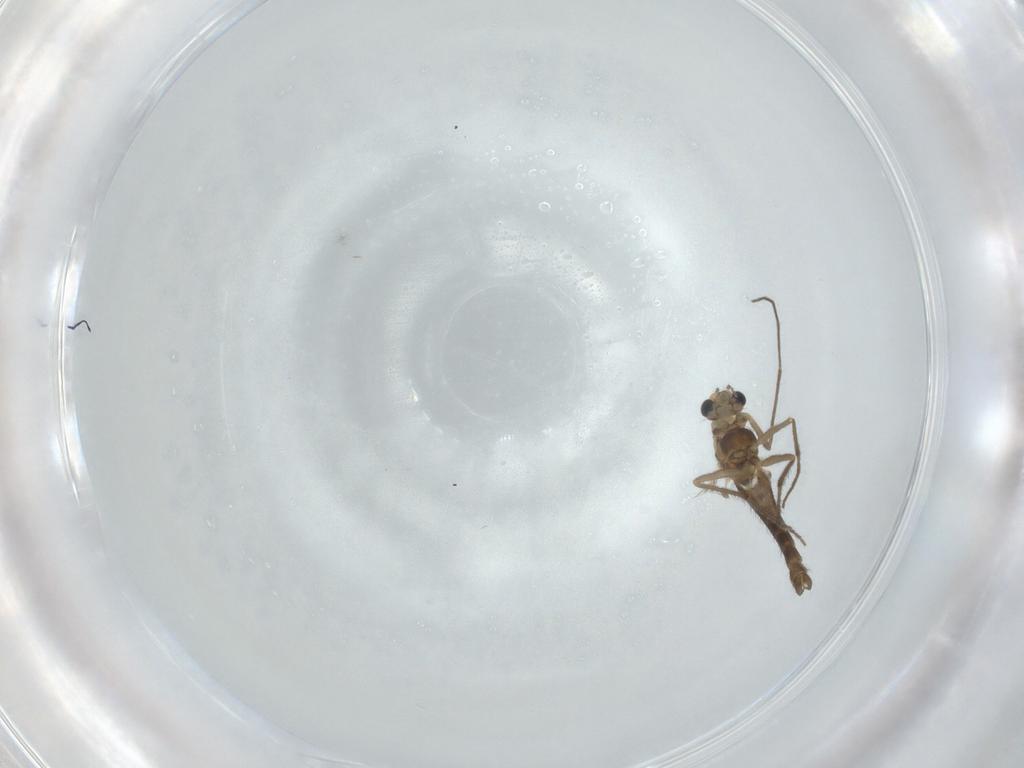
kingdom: Animalia
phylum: Arthropoda
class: Insecta
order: Diptera
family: Chironomidae
